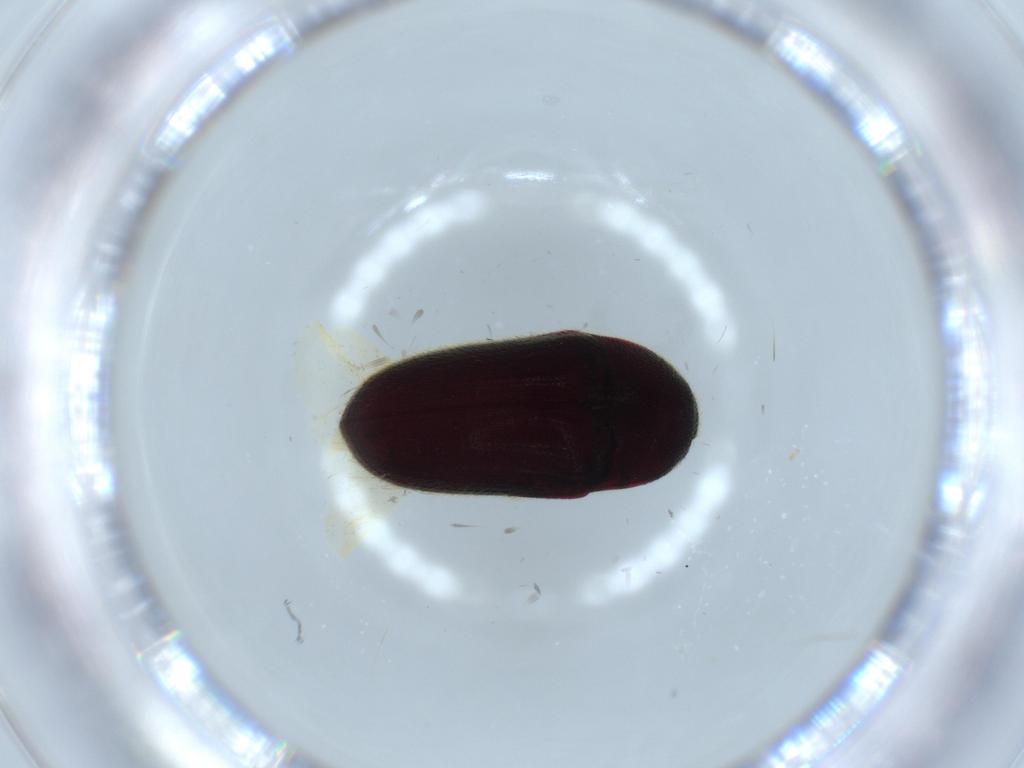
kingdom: Animalia
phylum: Arthropoda
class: Insecta
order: Coleoptera
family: Throscidae
